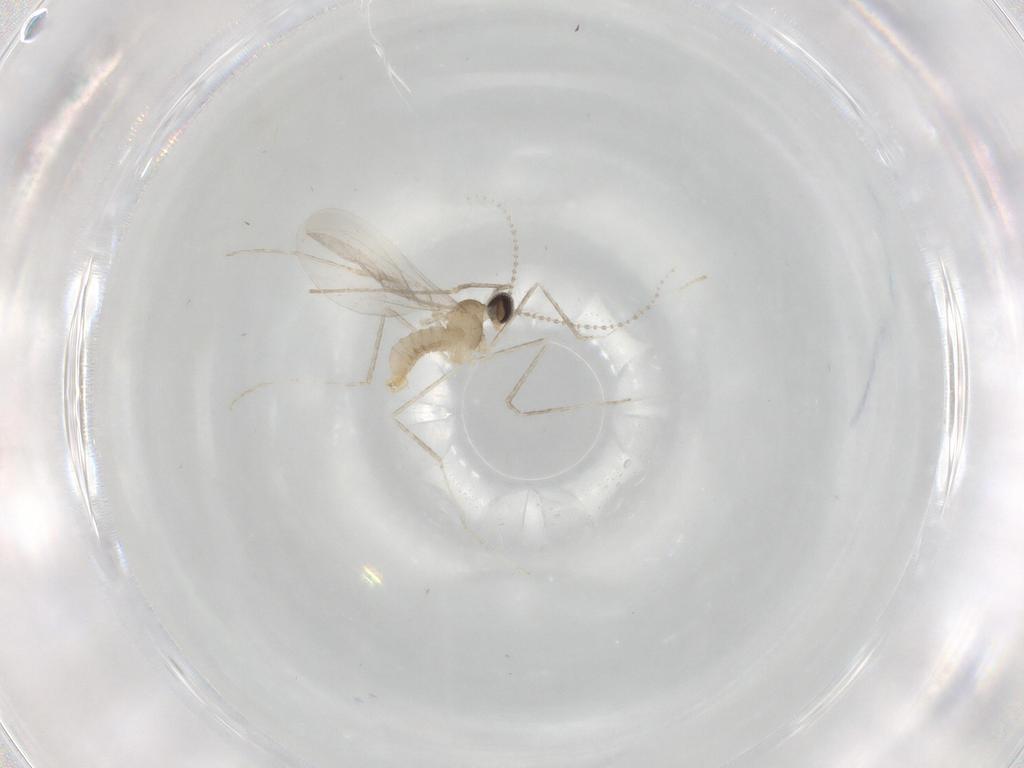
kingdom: Animalia
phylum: Arthropoda
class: Insecta
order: Diptera
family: Cecidomyiidae
